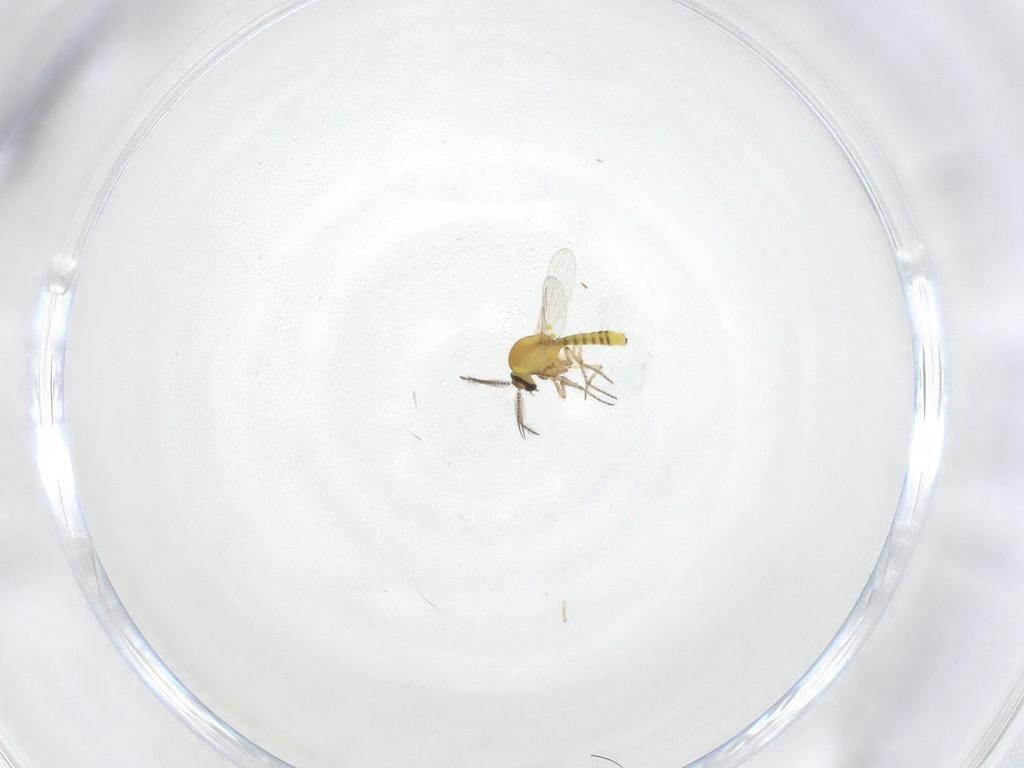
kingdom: Animalia
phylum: Arthropoda
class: Insecta
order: Diptera
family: Ceratopogonidae
